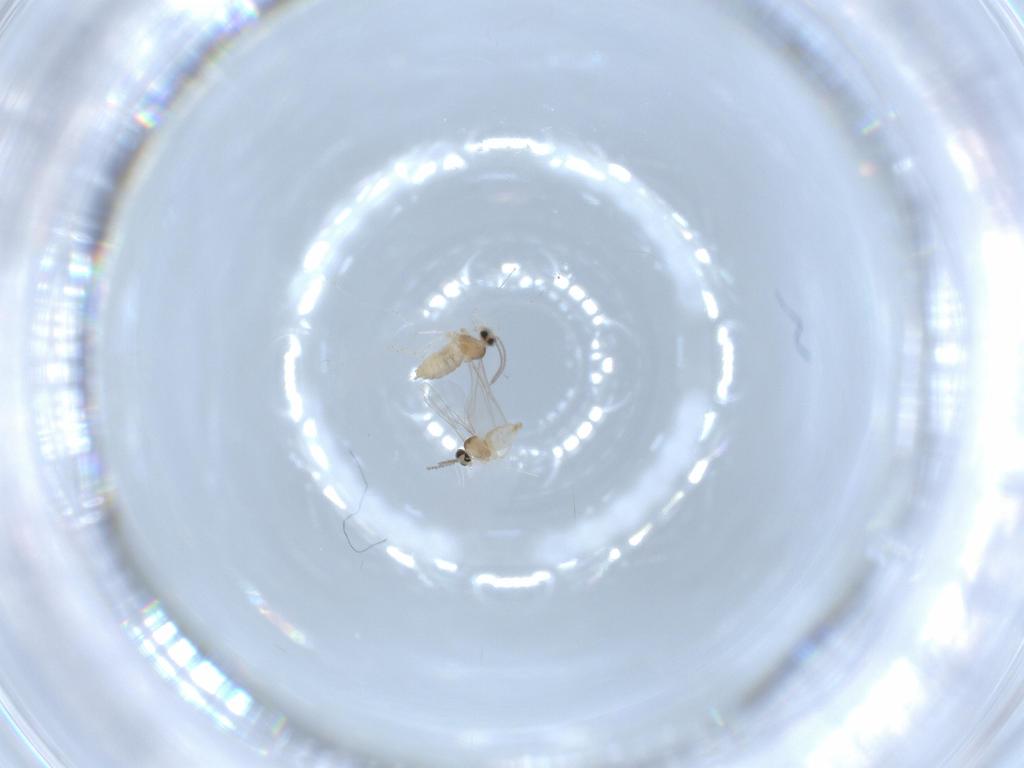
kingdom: Animalia
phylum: Arthropoda
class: Insecta
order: Diptera
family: Cecidomyiidae
